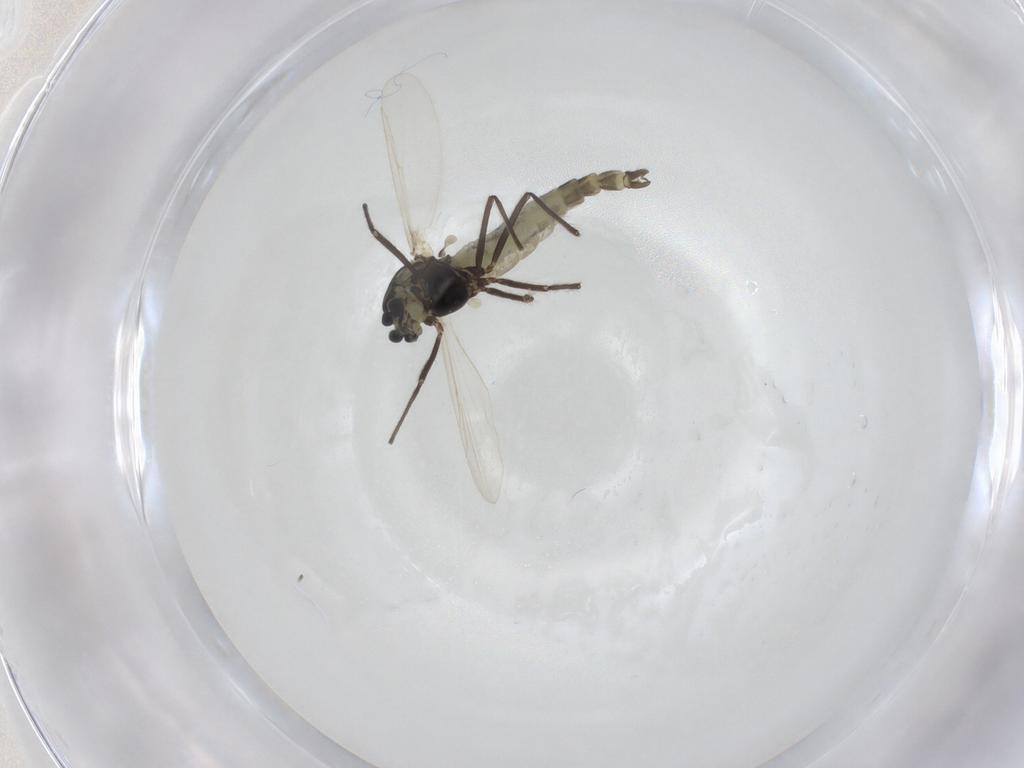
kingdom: Animalia
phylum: Arthropoda
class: Insecta
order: Diptera
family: Chironomidae
